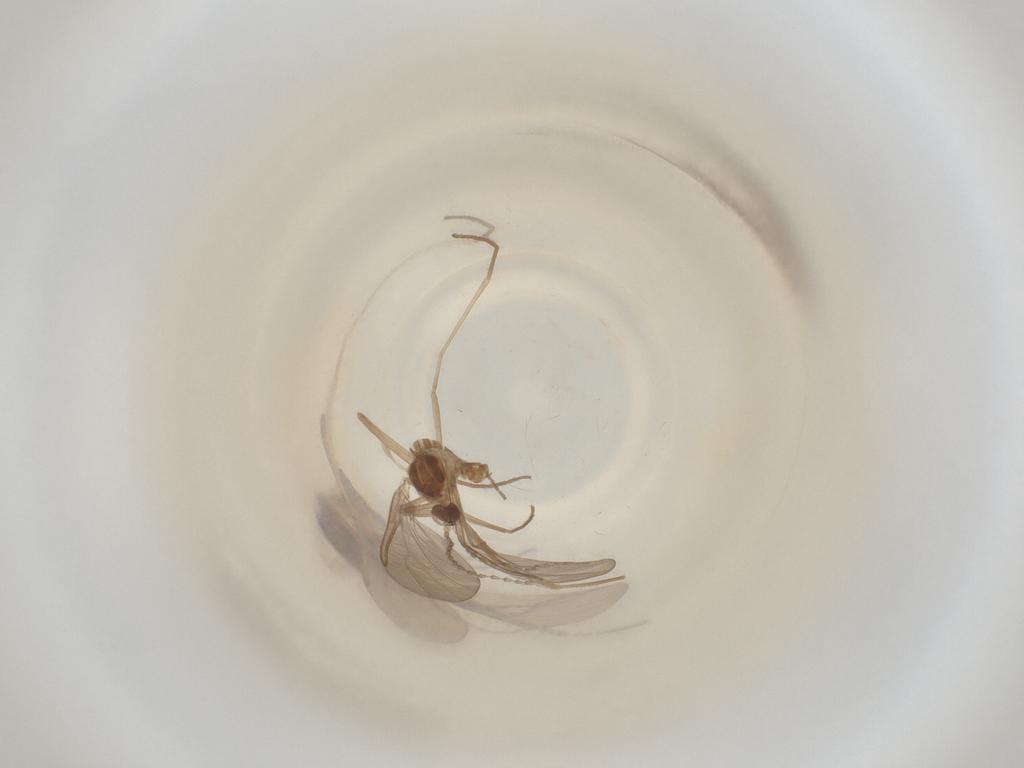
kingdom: Animalia
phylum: Arthropoda
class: Insecta
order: Diptera
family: Cecidomyiidae
